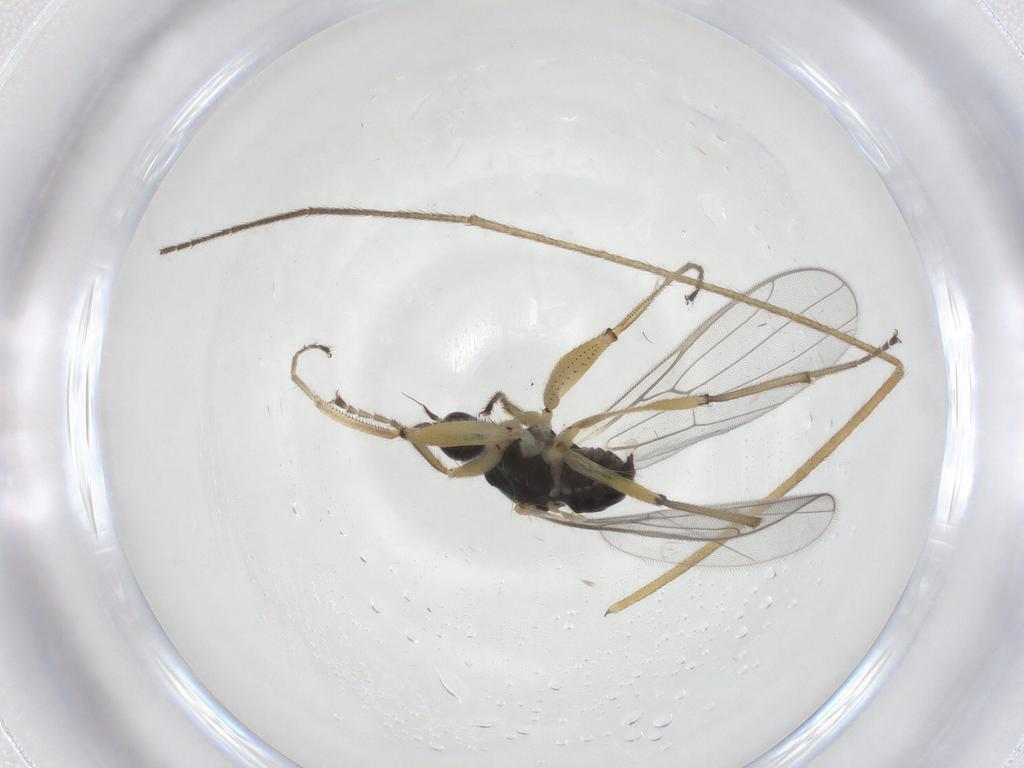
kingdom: Animalia
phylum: Arthropoda
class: Insecta
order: Diptera
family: Hybotidae
